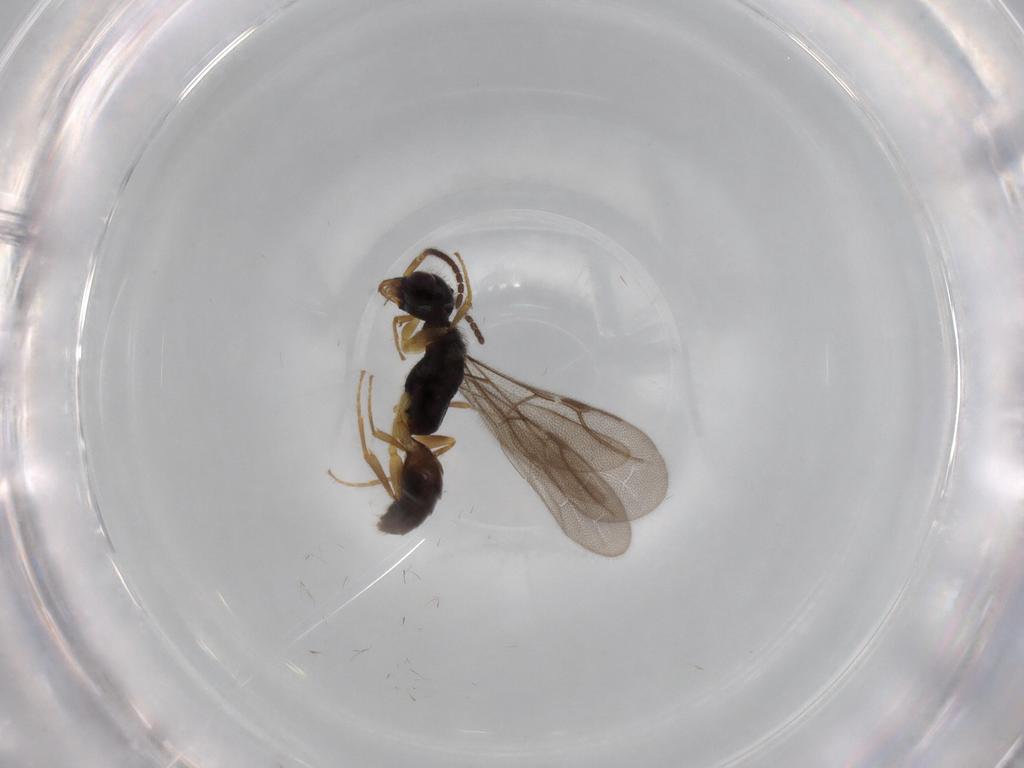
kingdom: Animalia
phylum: Arthropoda
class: Insecta
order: Hymenoptera
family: Bethylidae
